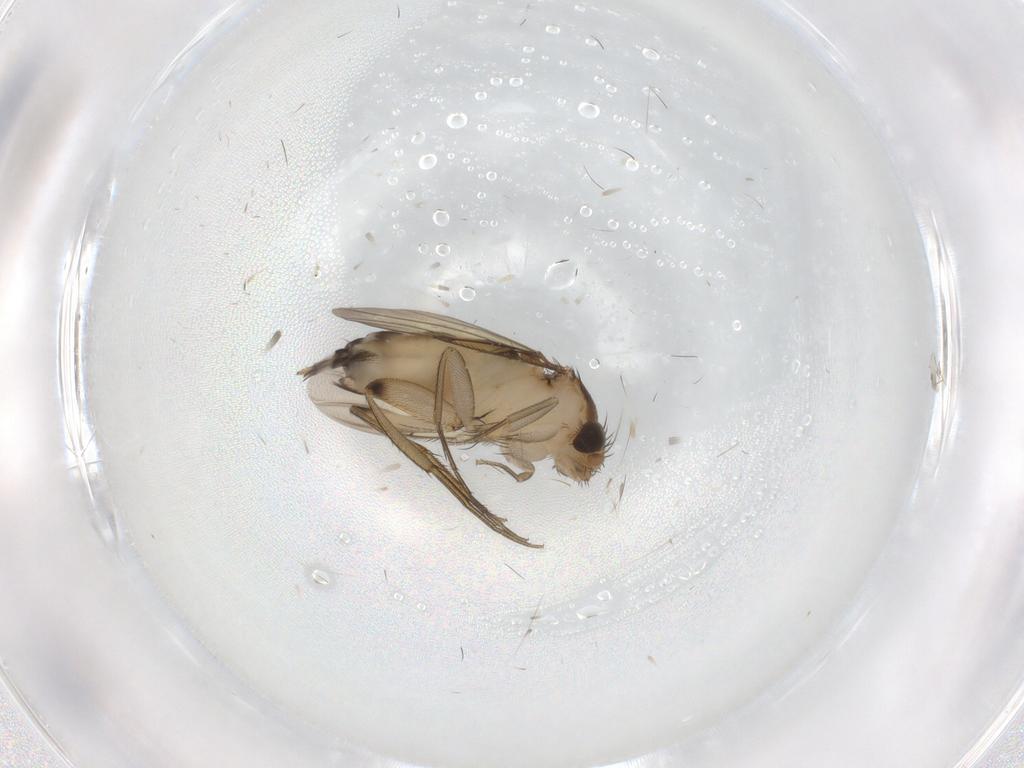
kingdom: Animalia
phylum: Arthropoda
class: Insecta
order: Diptera
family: Phoridae
